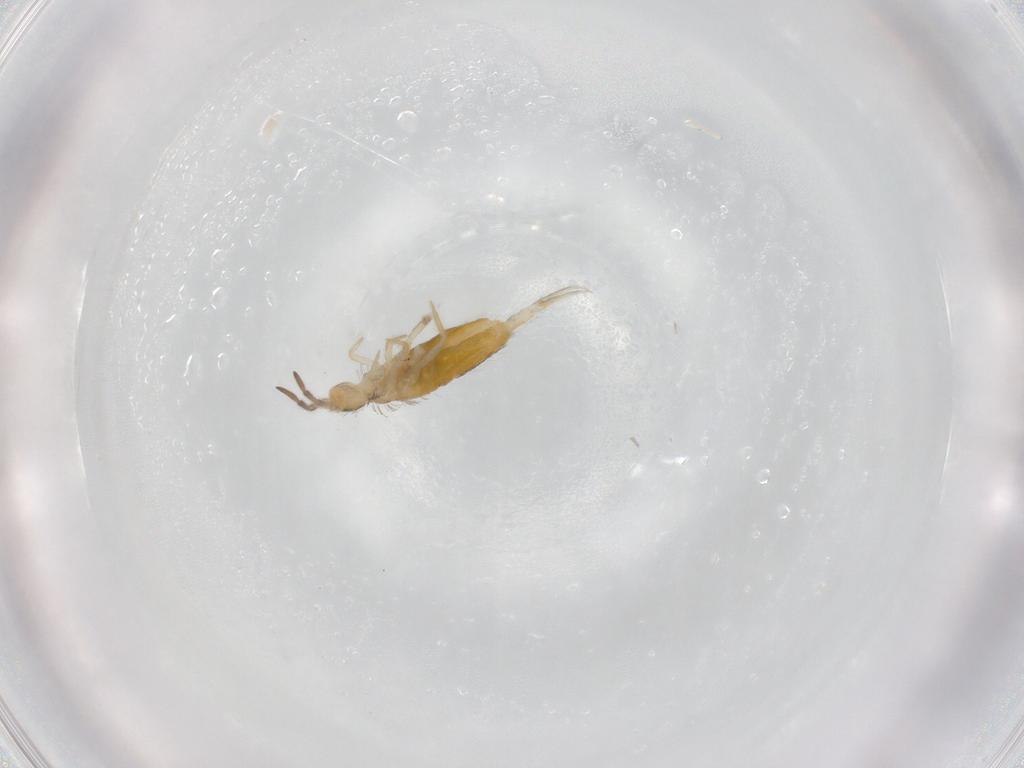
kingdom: Animalia
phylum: Arthropoda
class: Collembola
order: Entomobryomorpha
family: Entomobryidae
